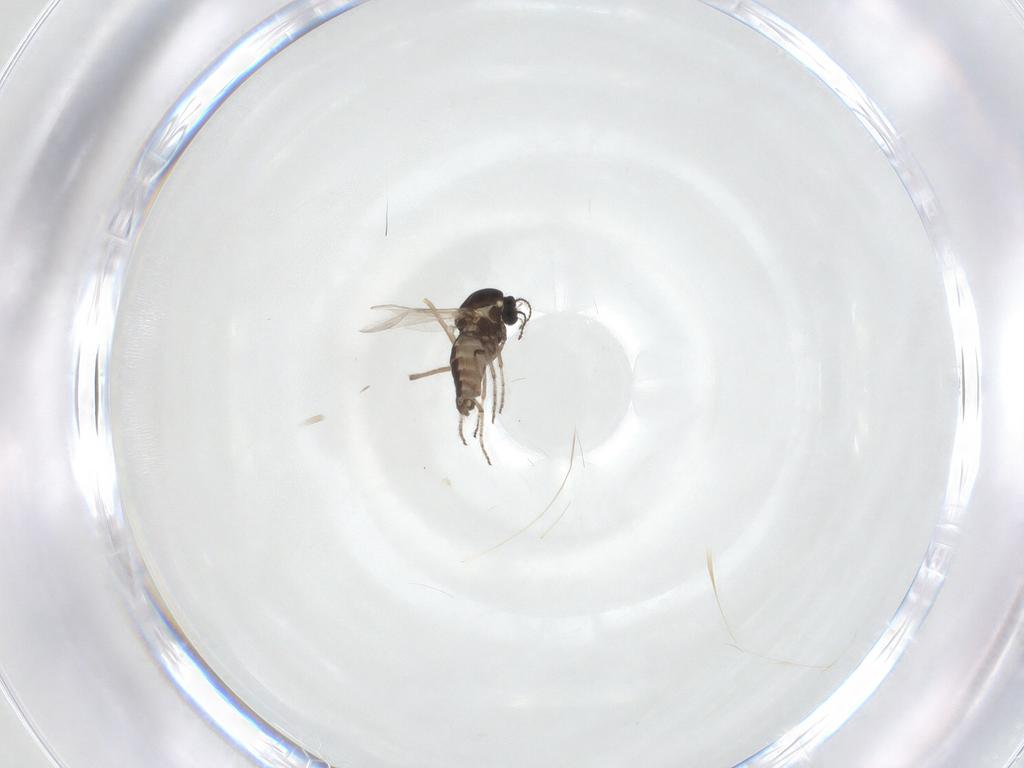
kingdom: Animalia
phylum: Arthropoda
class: Insecta
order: Diptera
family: Ceratopogonidae
